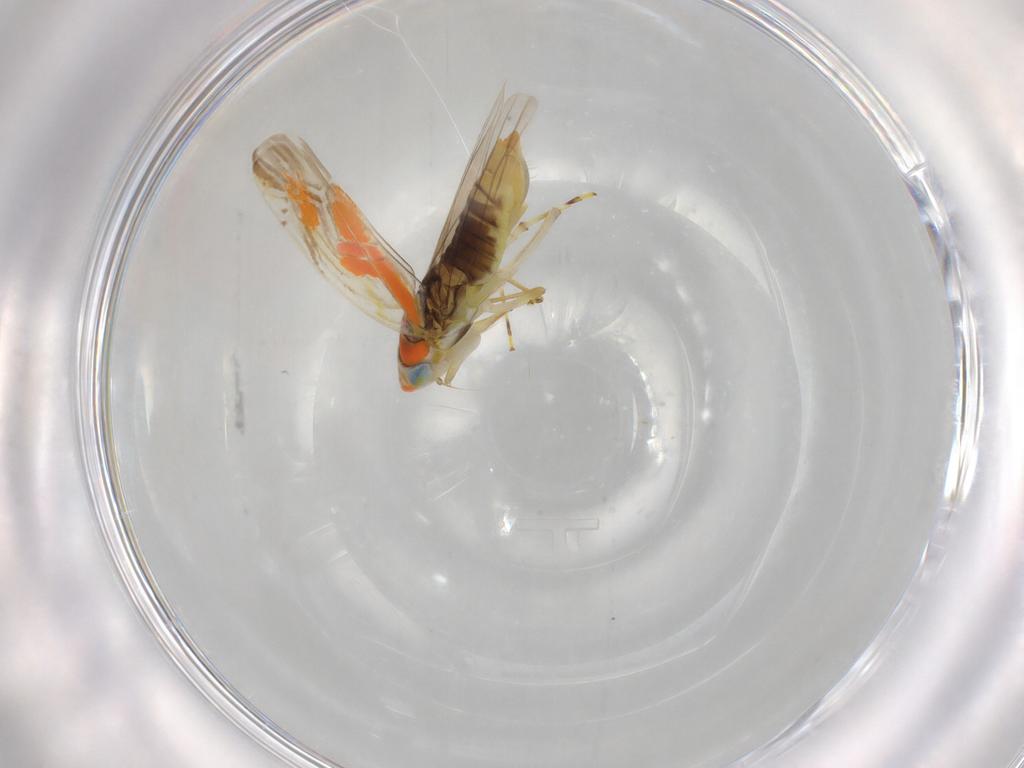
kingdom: Animalia
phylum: Arthropoda
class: Insecta
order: Hemiptera
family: Cicadellidae
